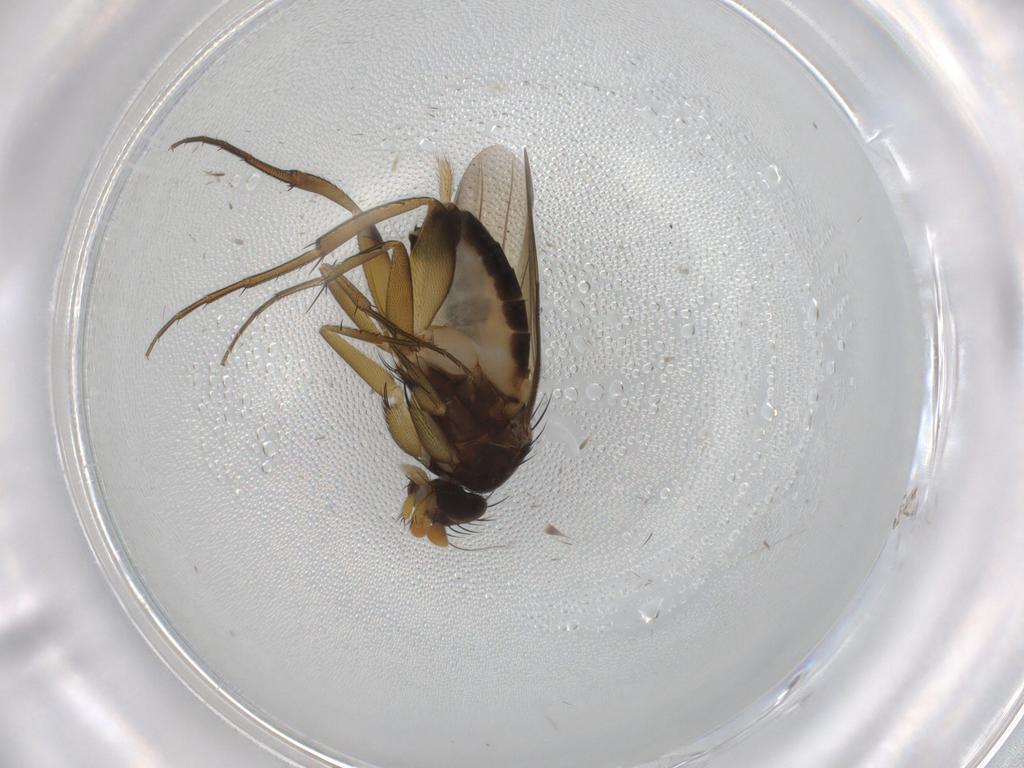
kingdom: Animalia
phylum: Arthropoda
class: Insecta
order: Diptera
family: Phoridae
